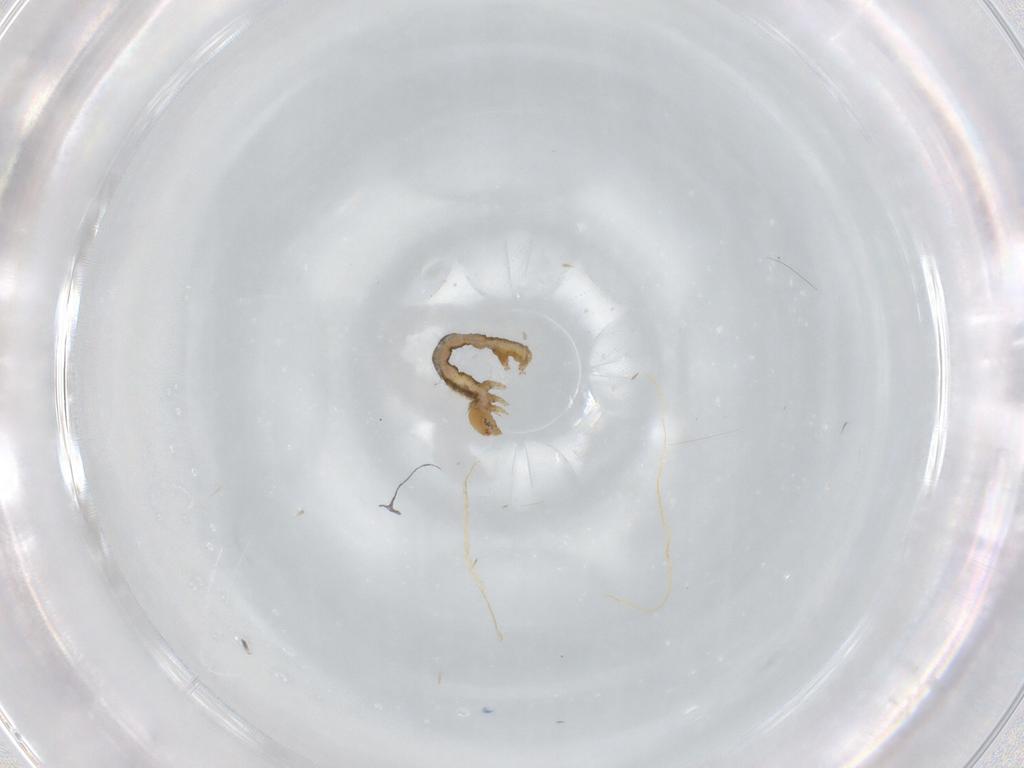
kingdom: Animalia
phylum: Arthropoda
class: Insecta
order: Lepidoptera
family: Geometridae
